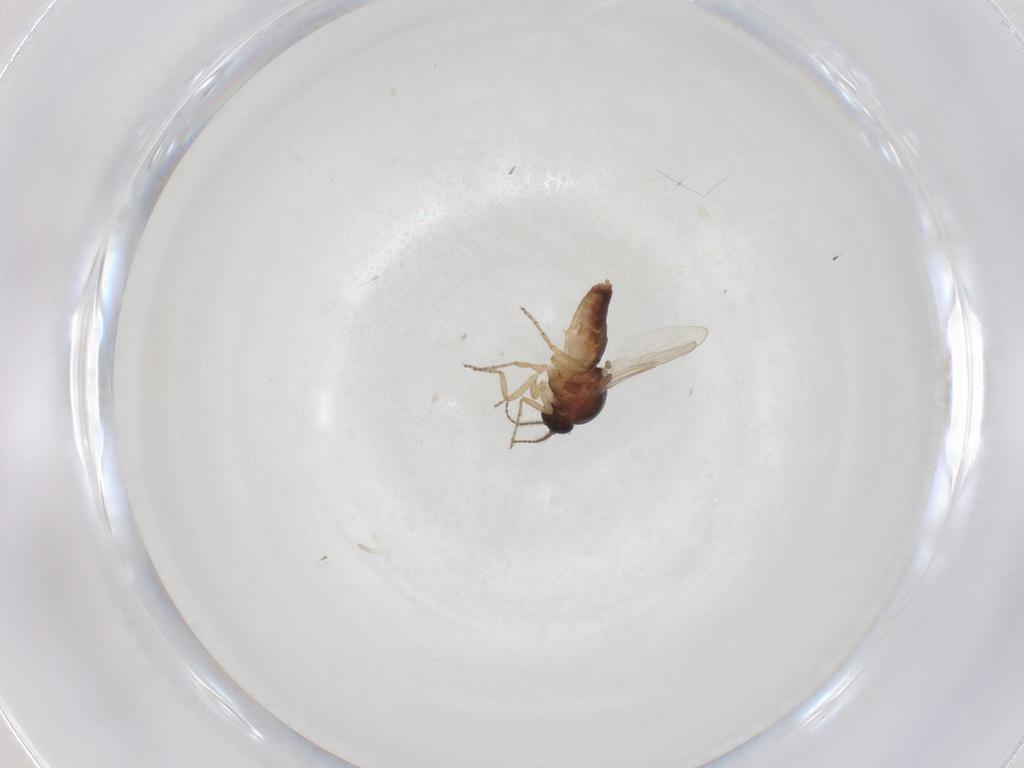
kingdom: Animalia
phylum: Arthropoda
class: Insecta
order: Diptera
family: Ceratopogonidae
